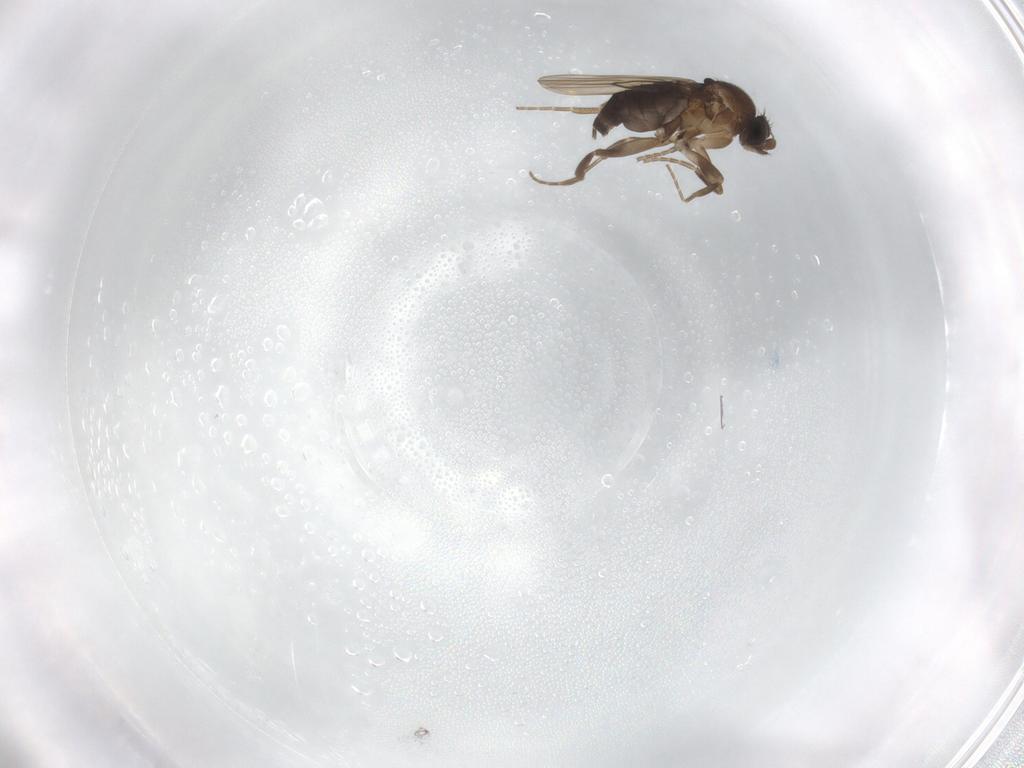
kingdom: Animalia
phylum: Arthropoda
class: Insecta
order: Diptera
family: Phoridae
